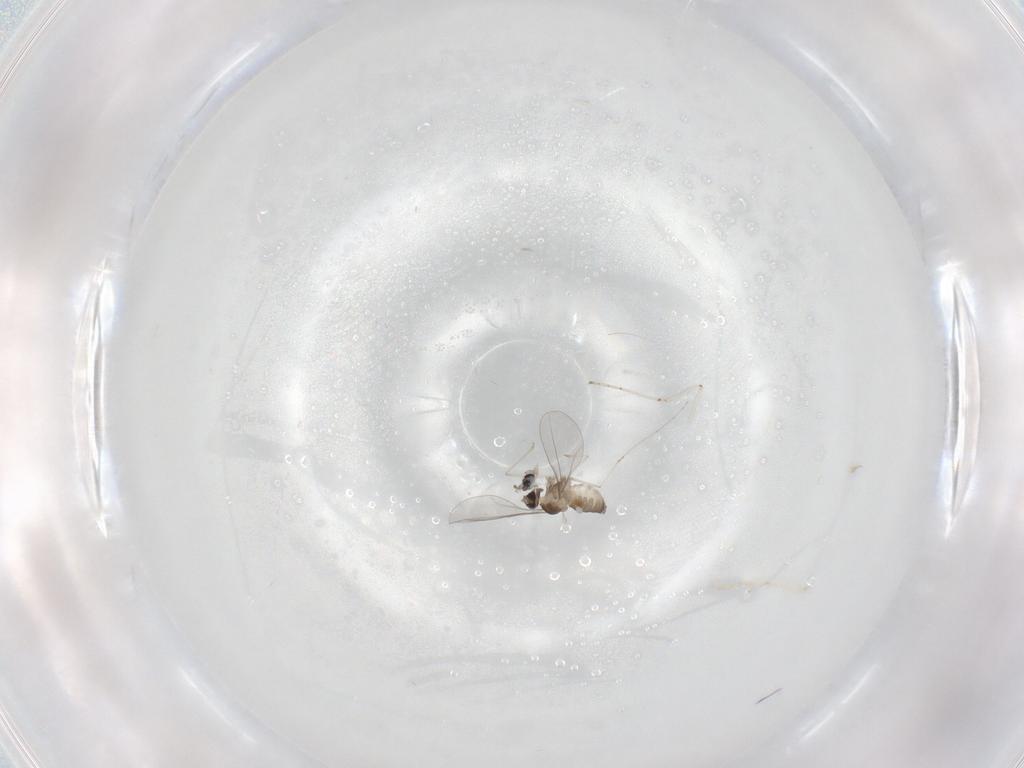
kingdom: Animalia
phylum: Arthropoda
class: Insecta
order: Diptera
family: Cecidomyiidae
